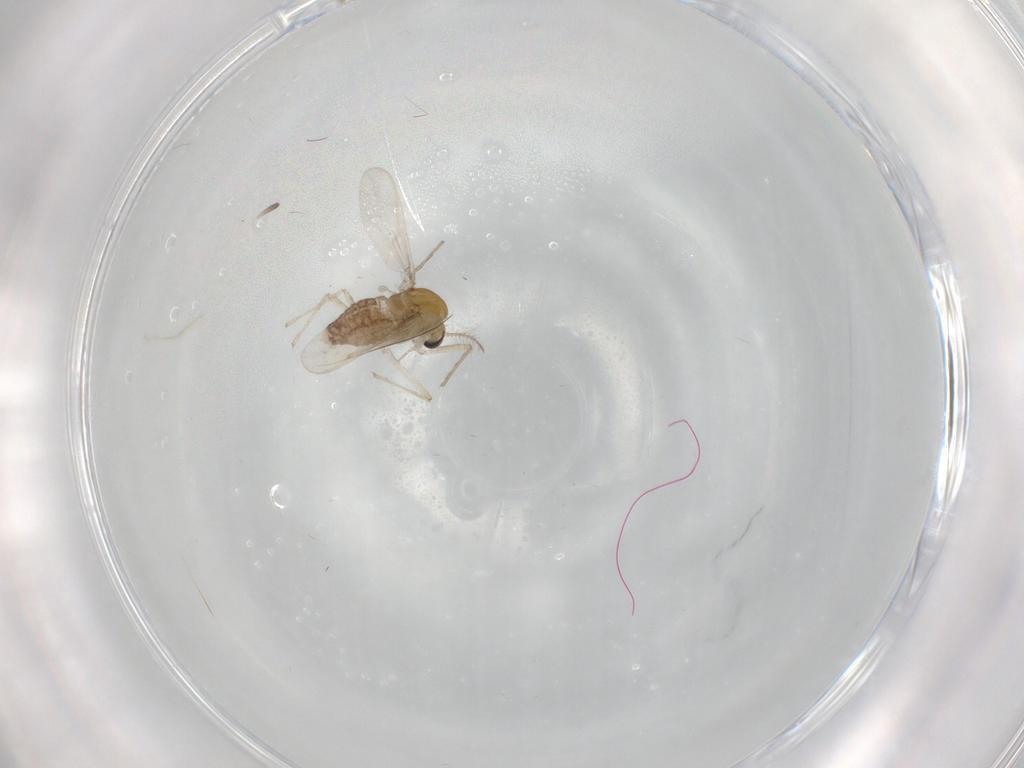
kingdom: Animalia
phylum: Arthropoda
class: Insecta
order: Diptera
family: Chironomidae
